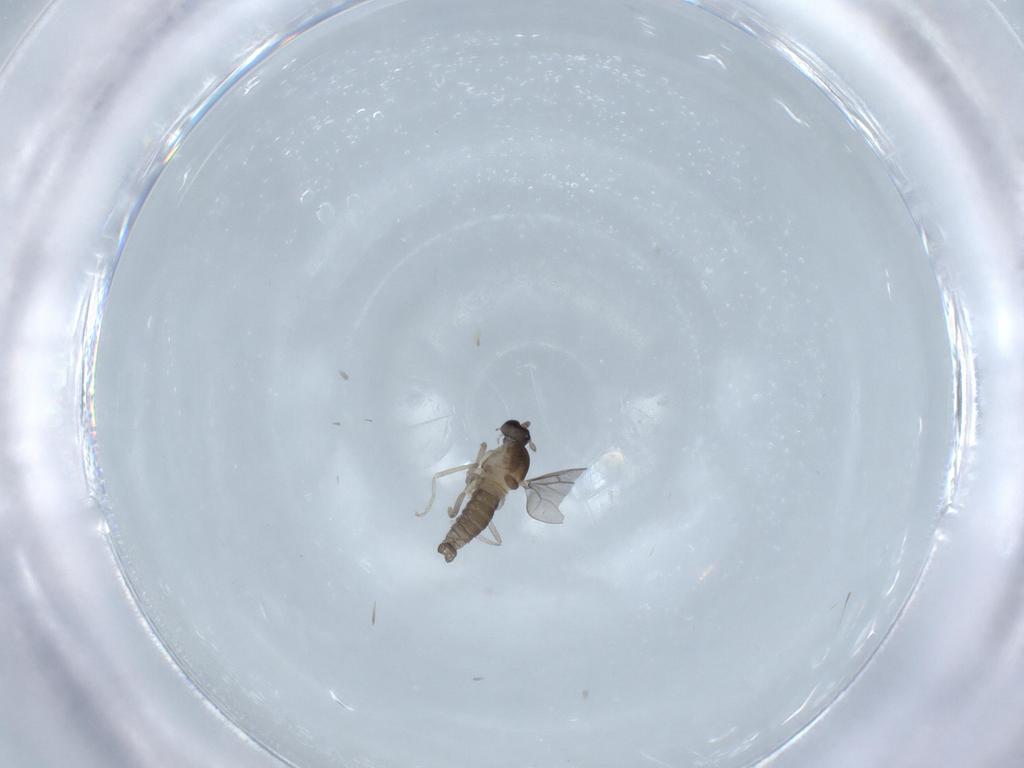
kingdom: Animalia
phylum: Arthropoda
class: Insecta
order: Diptera
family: Cecidomyiidae
